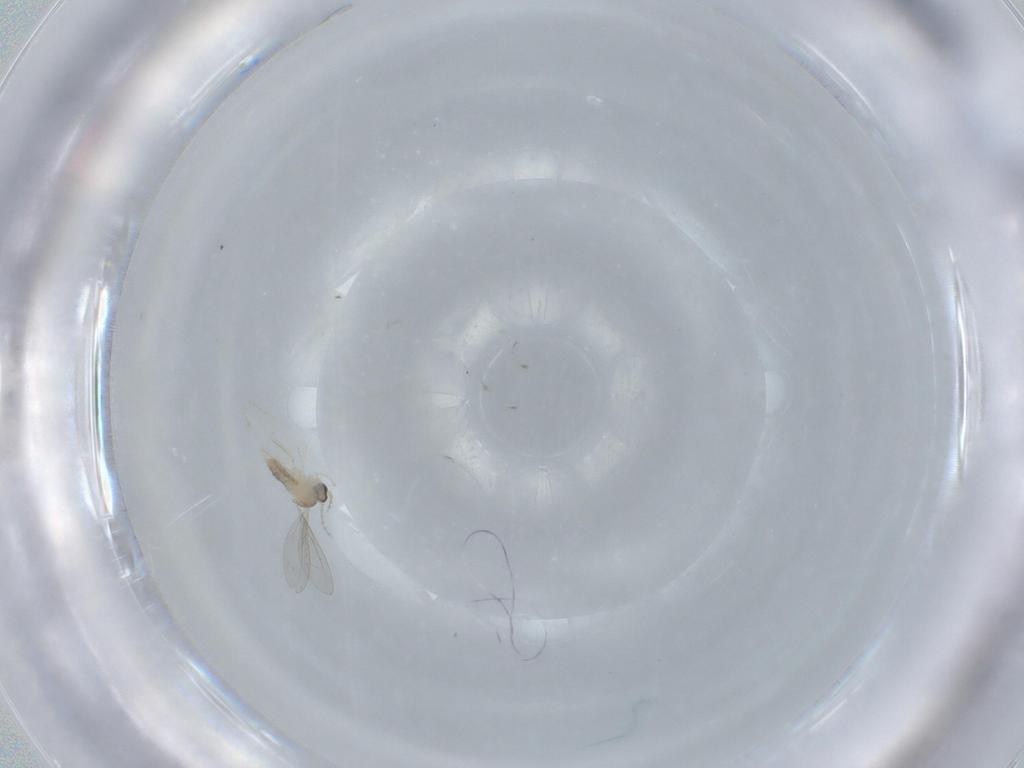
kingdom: Animalia
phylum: Arthropoda
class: Insecta
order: Diptera
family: Cecidomyiidae
